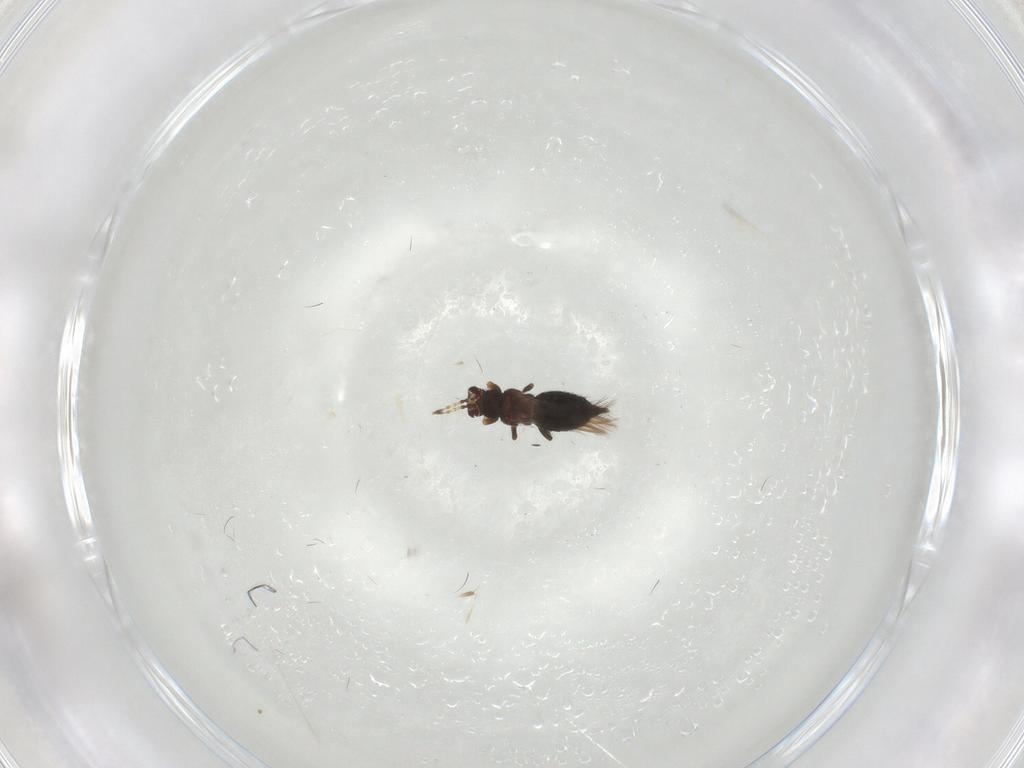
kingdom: Animalia
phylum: Arthropoda
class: Insecta
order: Thysanoptera
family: Thripidae
